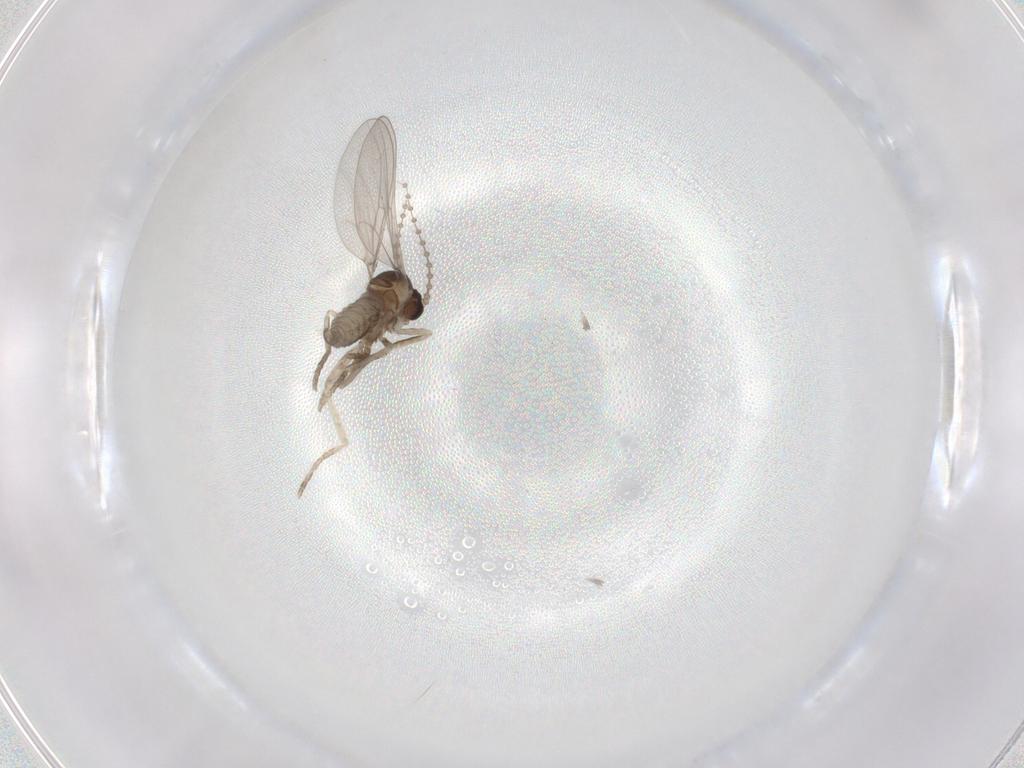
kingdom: Animalia
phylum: Arthropoda
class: Insecta
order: Diptera
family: Cecidomyiidae
